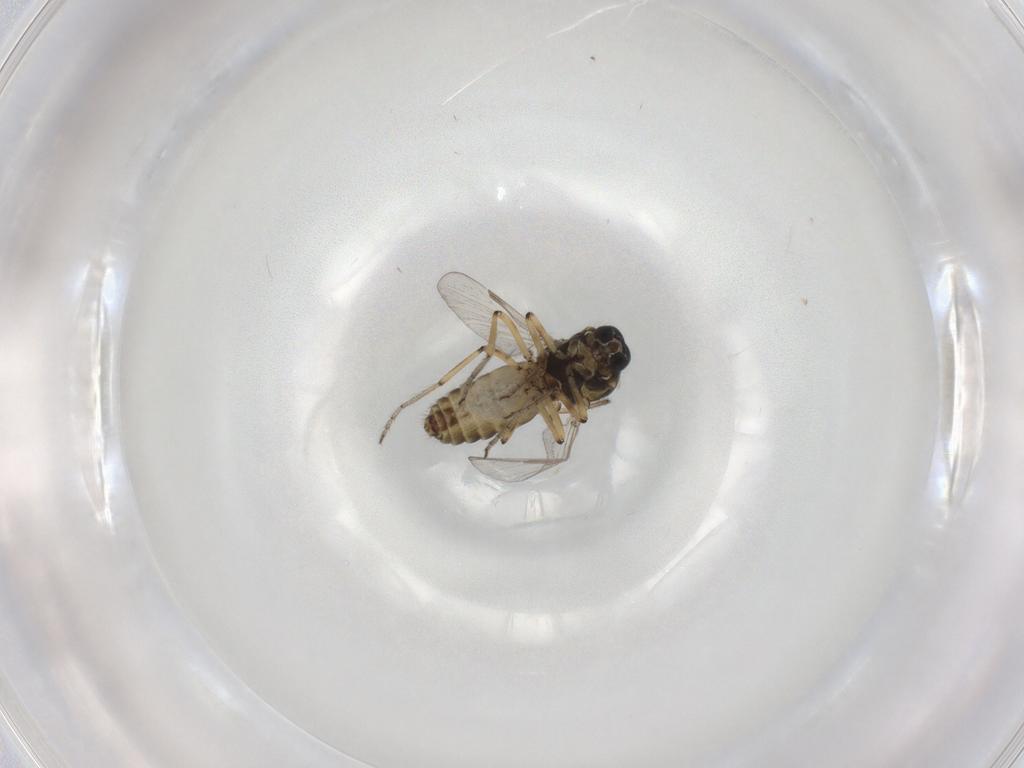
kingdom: Animalia
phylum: Arthropoda
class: Insecta
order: Diptera
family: Ceratopogonidae
